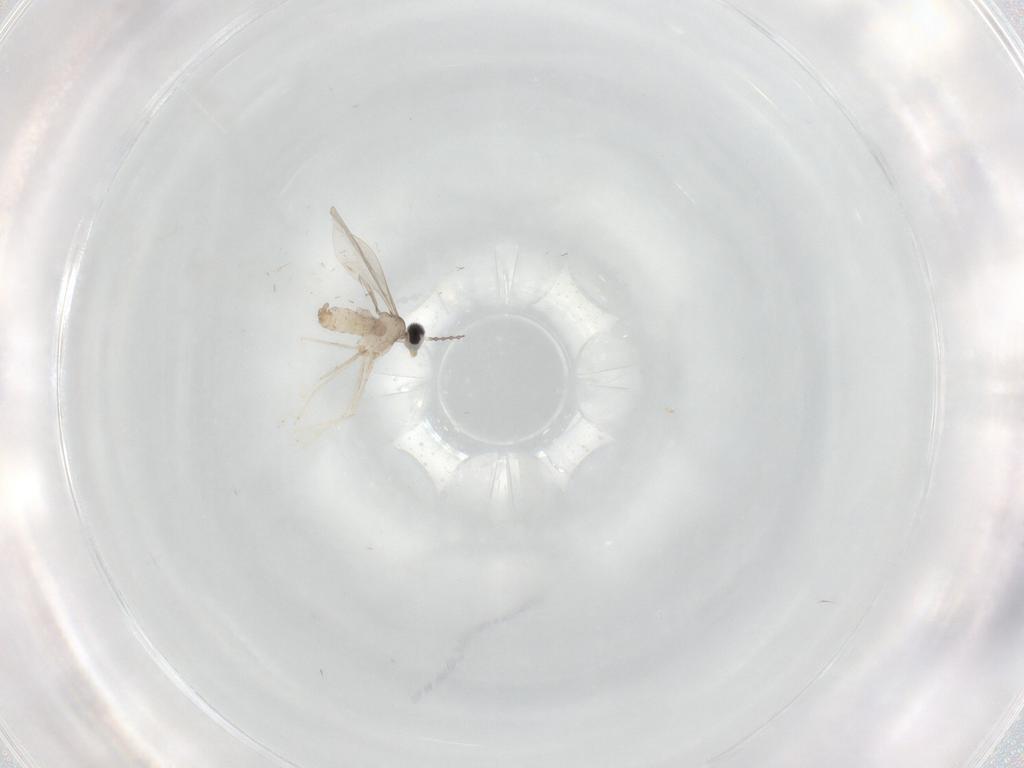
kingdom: Animalia
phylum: Arthropoda
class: Insecta
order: Diptera
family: Cecidomyiidae
